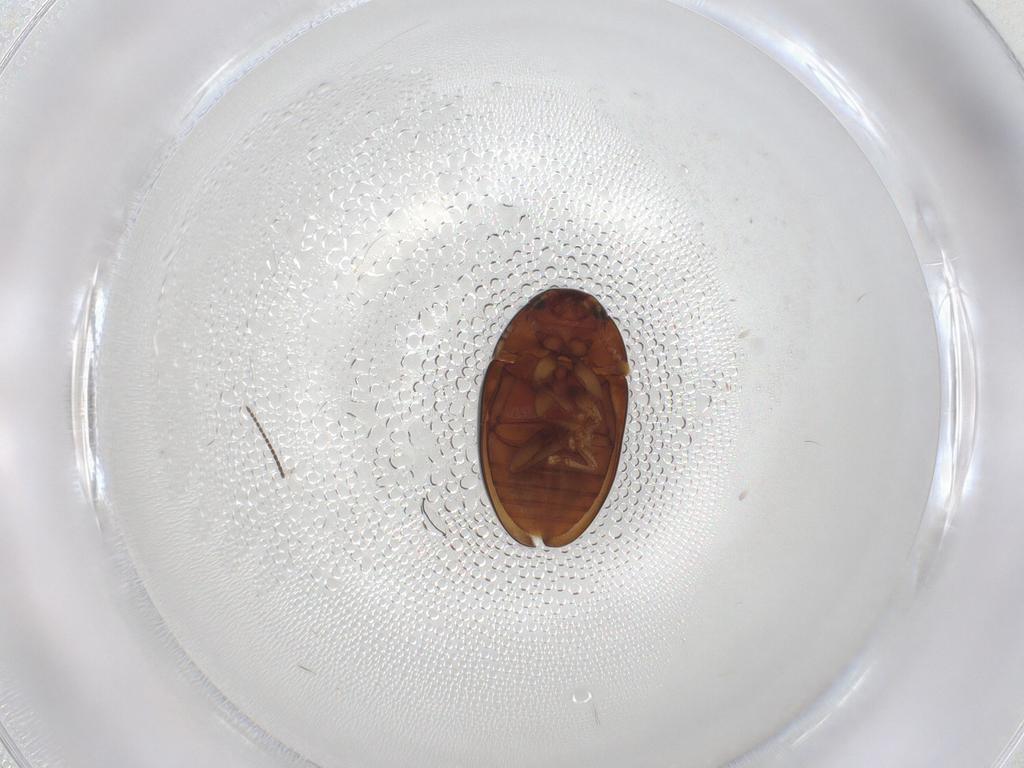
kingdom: Animalia
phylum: Arthropoda
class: Insecta
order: Coleoptera
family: Phalacridae
